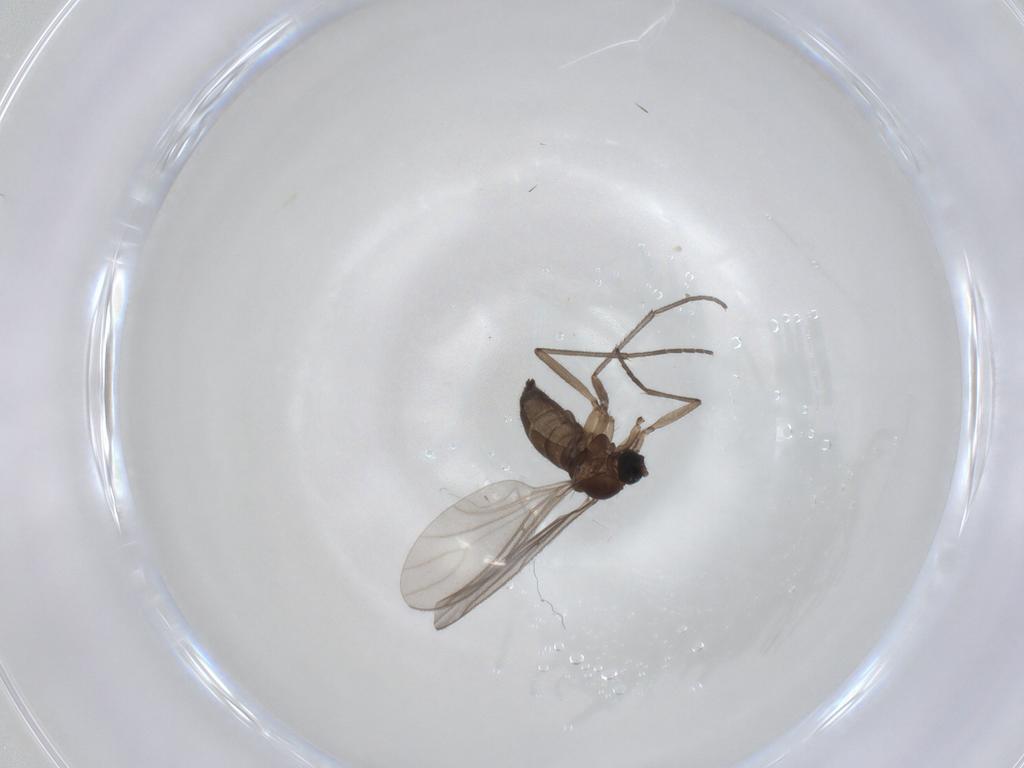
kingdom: Animalia
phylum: Arthropoda
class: Insecta
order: Diptera
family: Sciaridae
